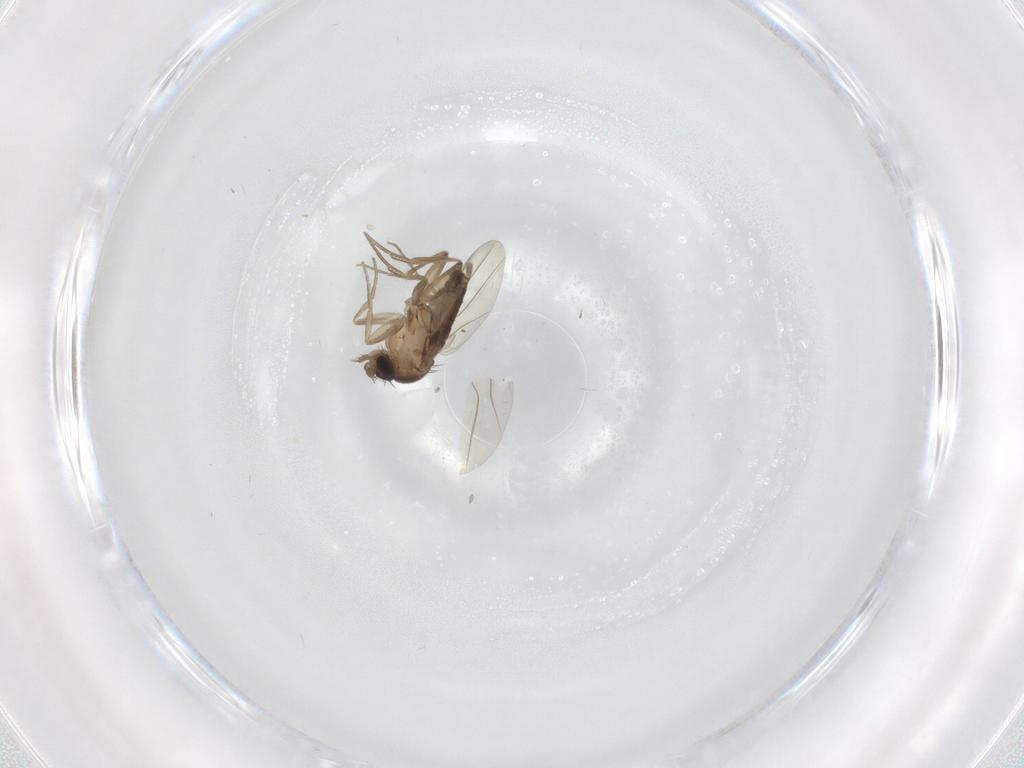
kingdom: Animalia
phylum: Arthropoda
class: Insecta
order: Diptera
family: Phoridae
